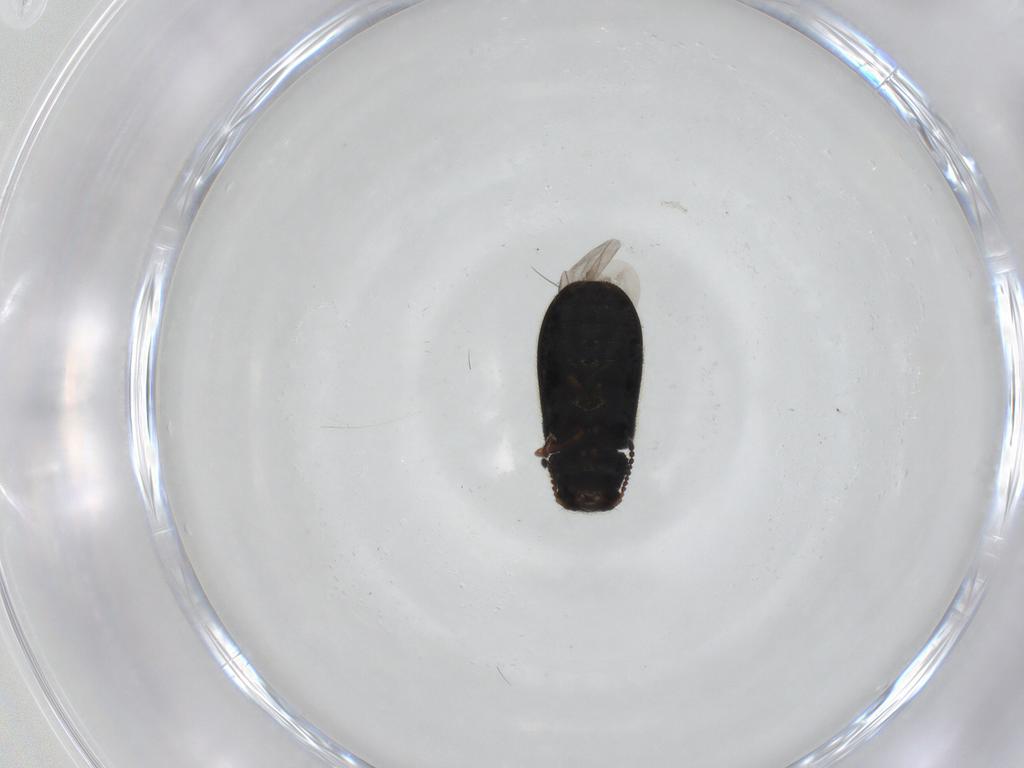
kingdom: Animalia
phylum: Arthropoda
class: Insecta
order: Coleoptera
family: Melyridae
